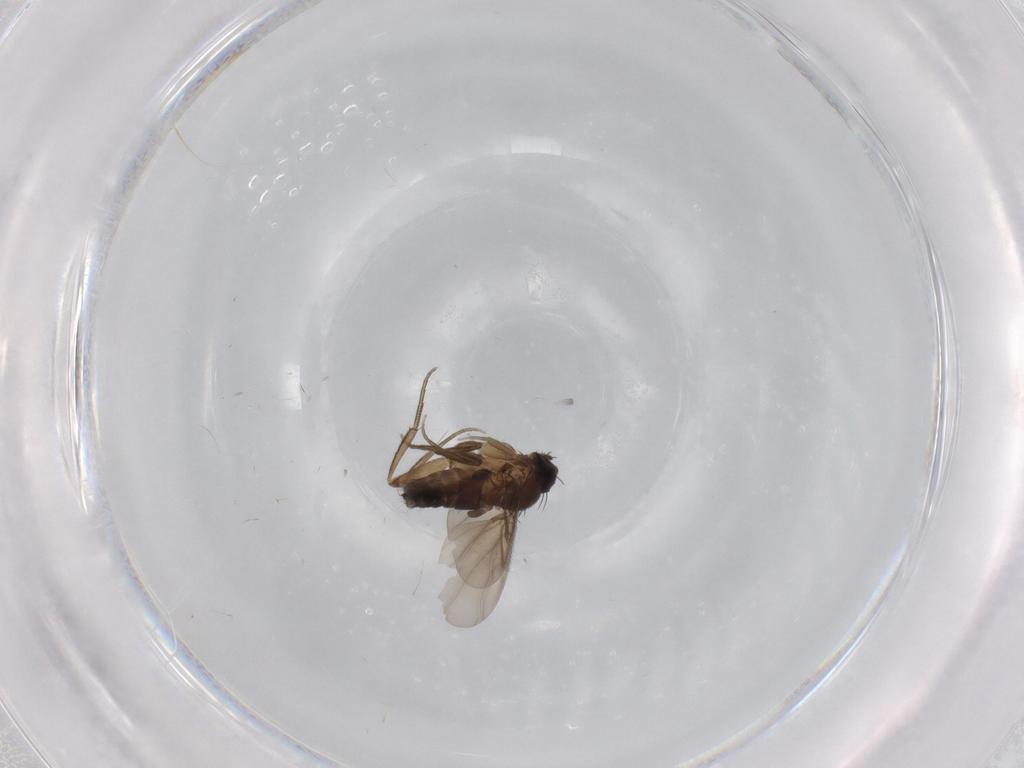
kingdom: Animalia
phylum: Arthropoda
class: Insecta
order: Diptera
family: Phoridae
